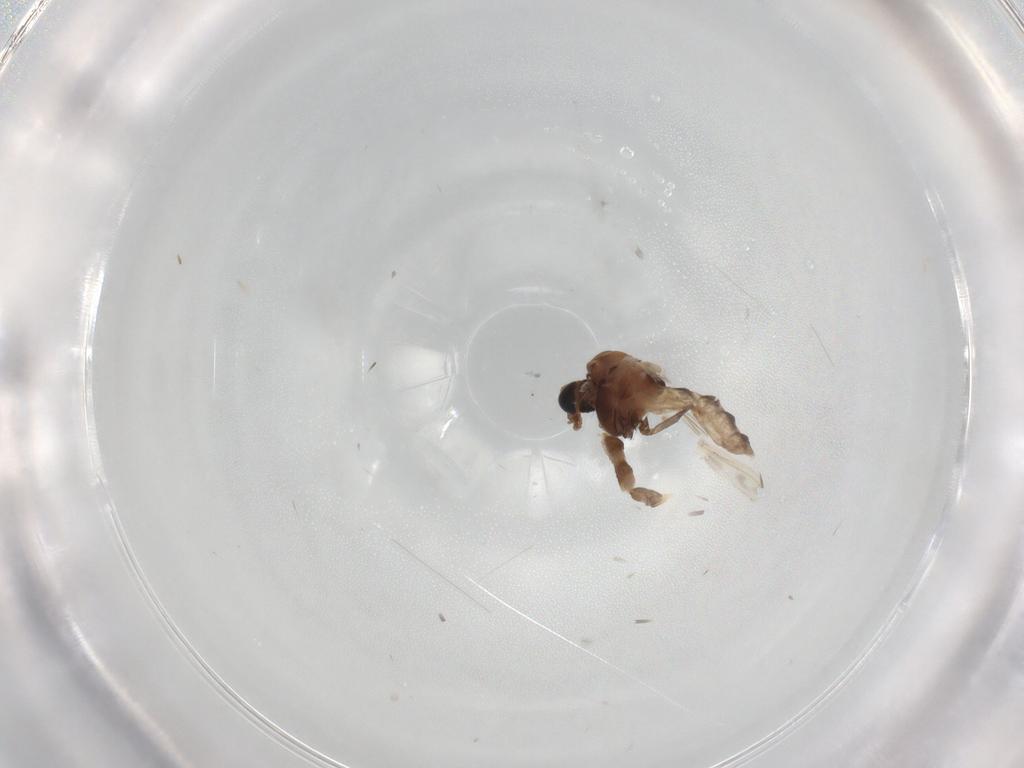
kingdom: Animalia
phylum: Arthropoda
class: Insecta
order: Diptera
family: Chironomidae
